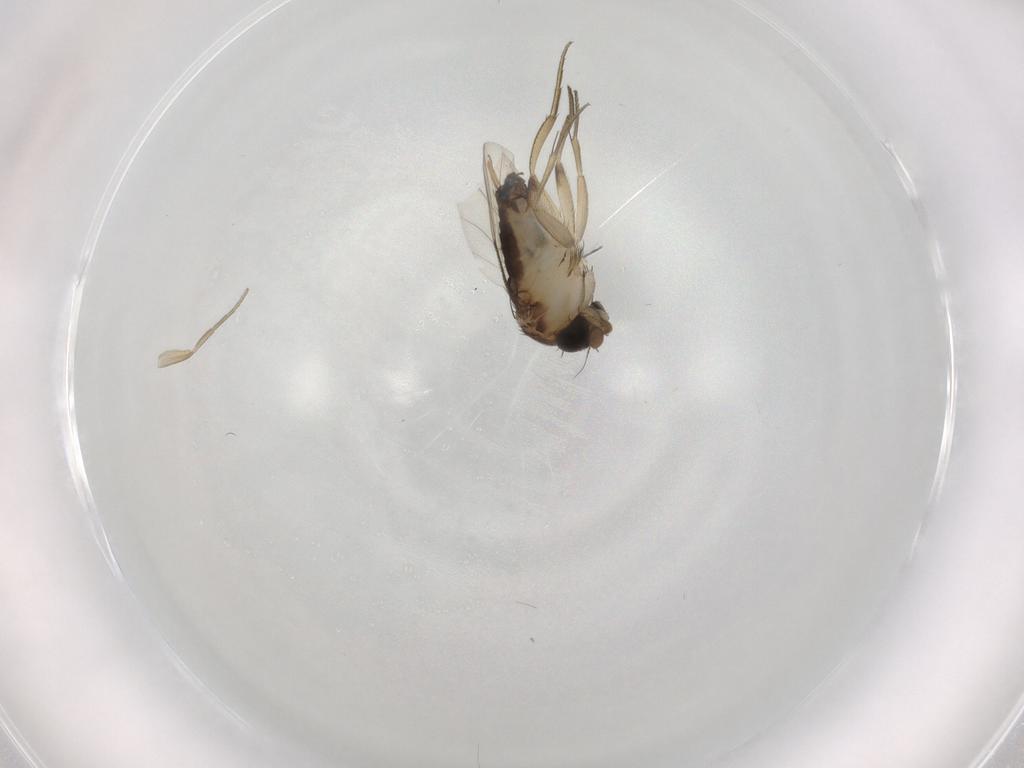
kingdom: Animalia
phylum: Arthropoda
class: Insecta
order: Diptera
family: Phoridae
